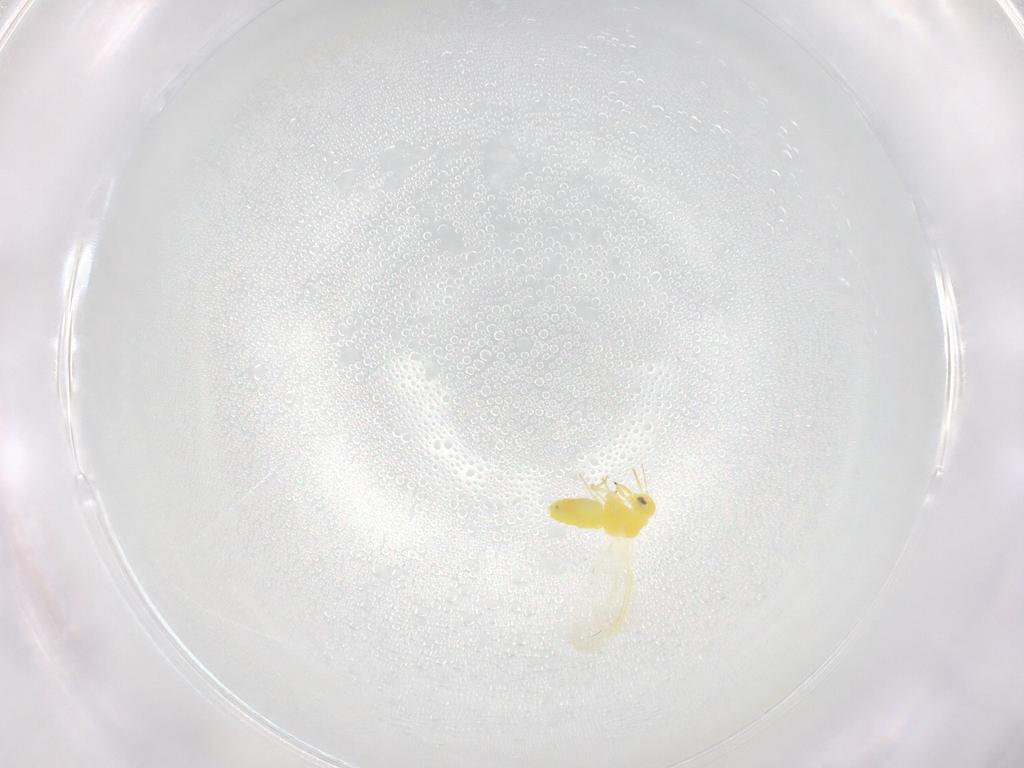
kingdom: Animalia
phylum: Arthropoda
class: Insecta
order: Hemiptera
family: Aleyrodidae
